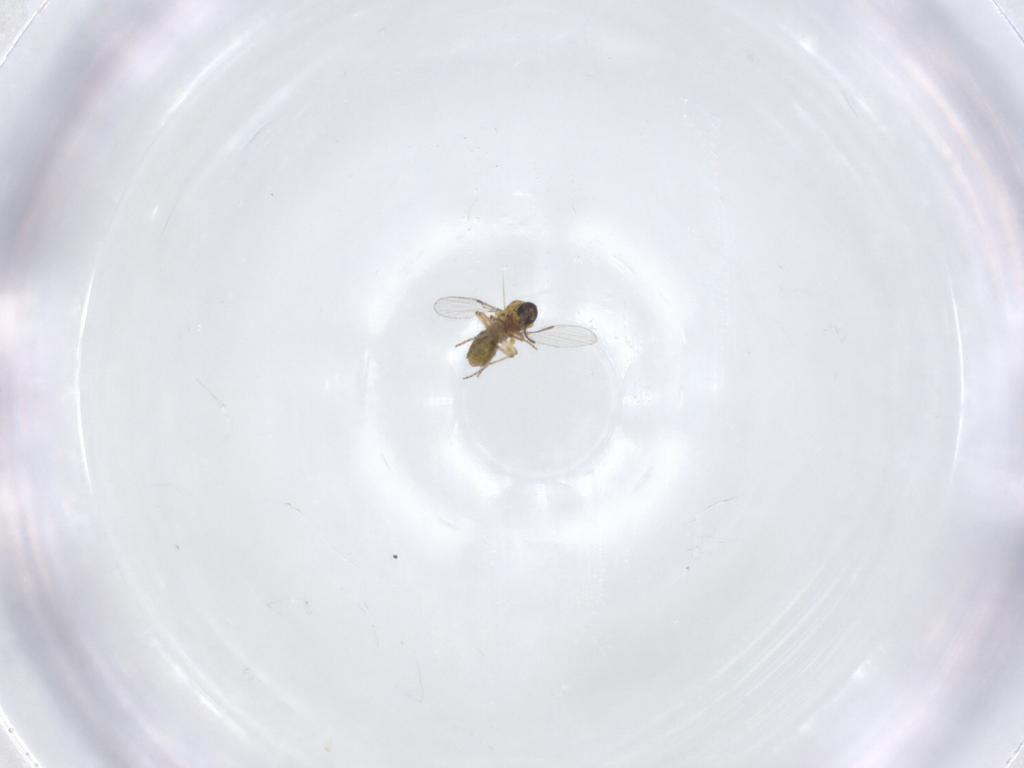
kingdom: Animalia
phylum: Arthropoda
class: Insecta
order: Diptera
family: Ceratopogonidae
